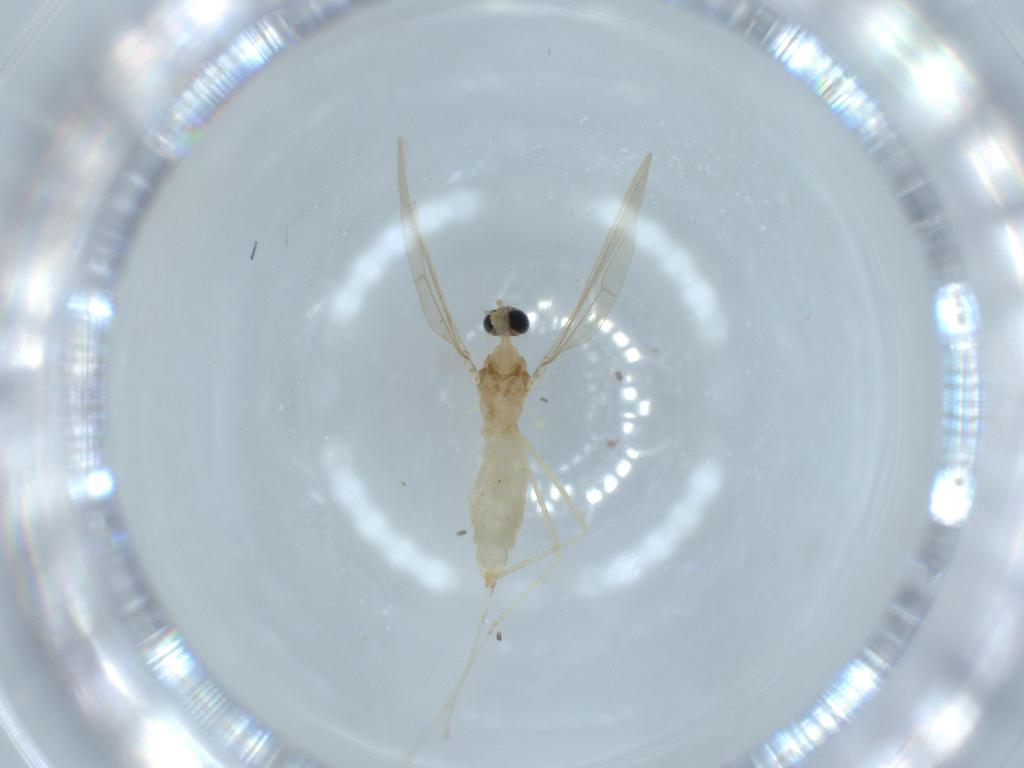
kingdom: Animalia
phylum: Arthropoda
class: Insecta
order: Diptera
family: Cecidomyiidae
